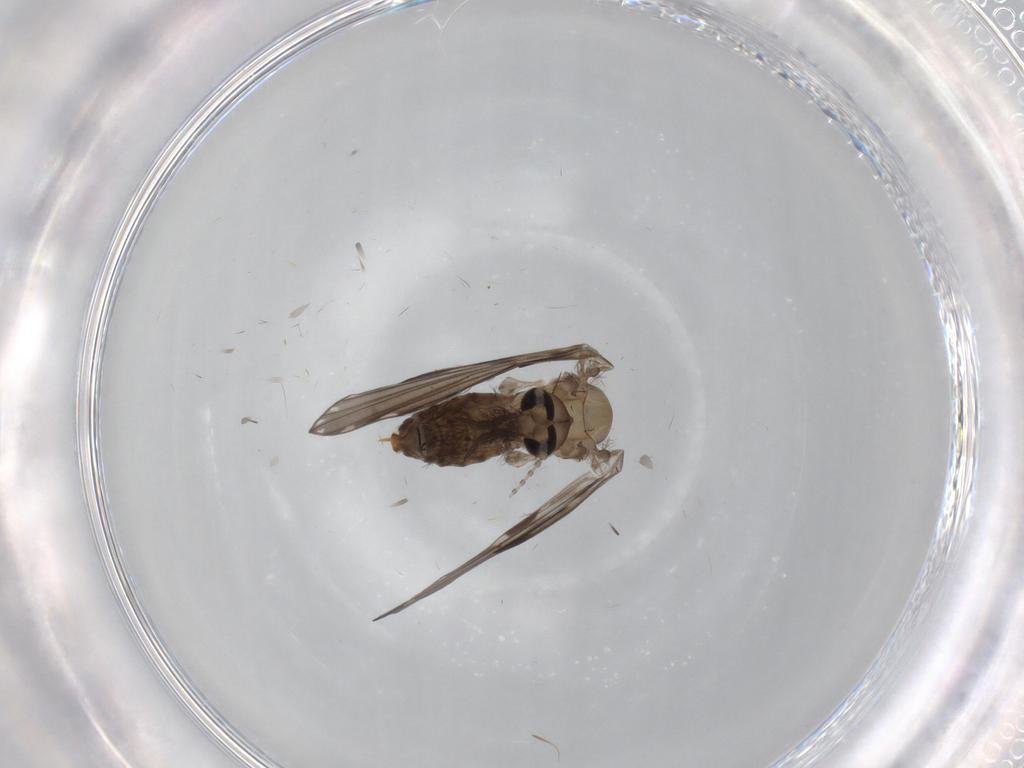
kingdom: Animalia
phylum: Arthropoda
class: Insecta
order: Diptera
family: Psychodidae
